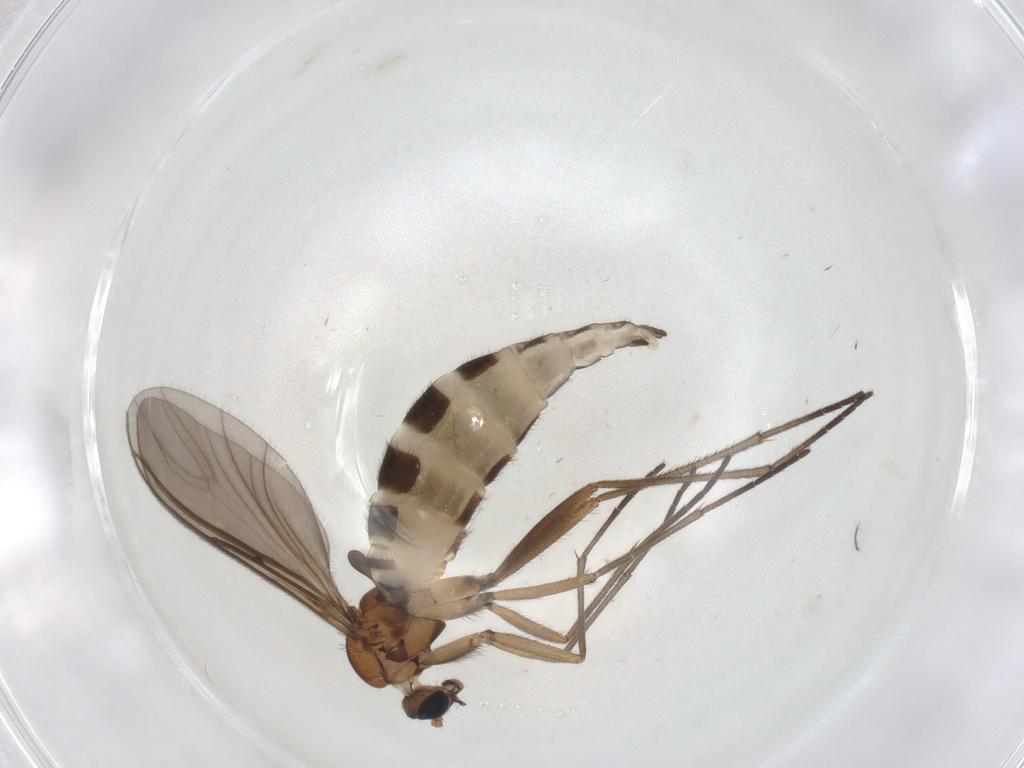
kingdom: Animalia
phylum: Arthropoda
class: Insecta
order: Diptera
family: Sciaridae
